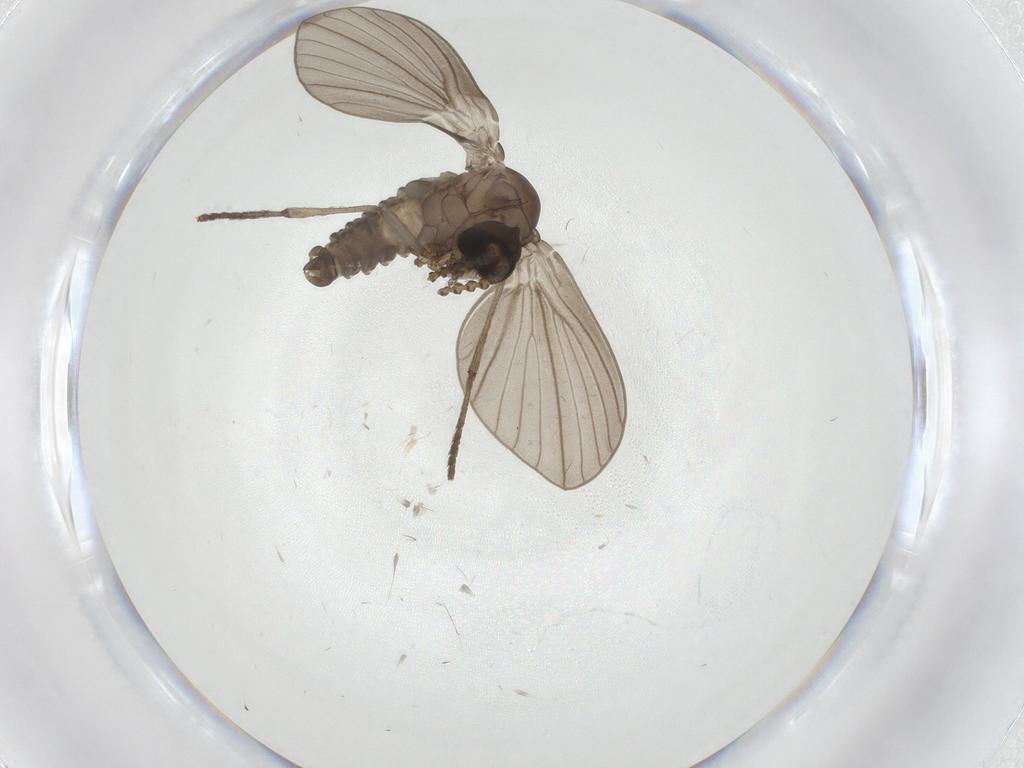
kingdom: Animalia
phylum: Arthropoda
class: Insecta
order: Diptera
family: Psychodidae
